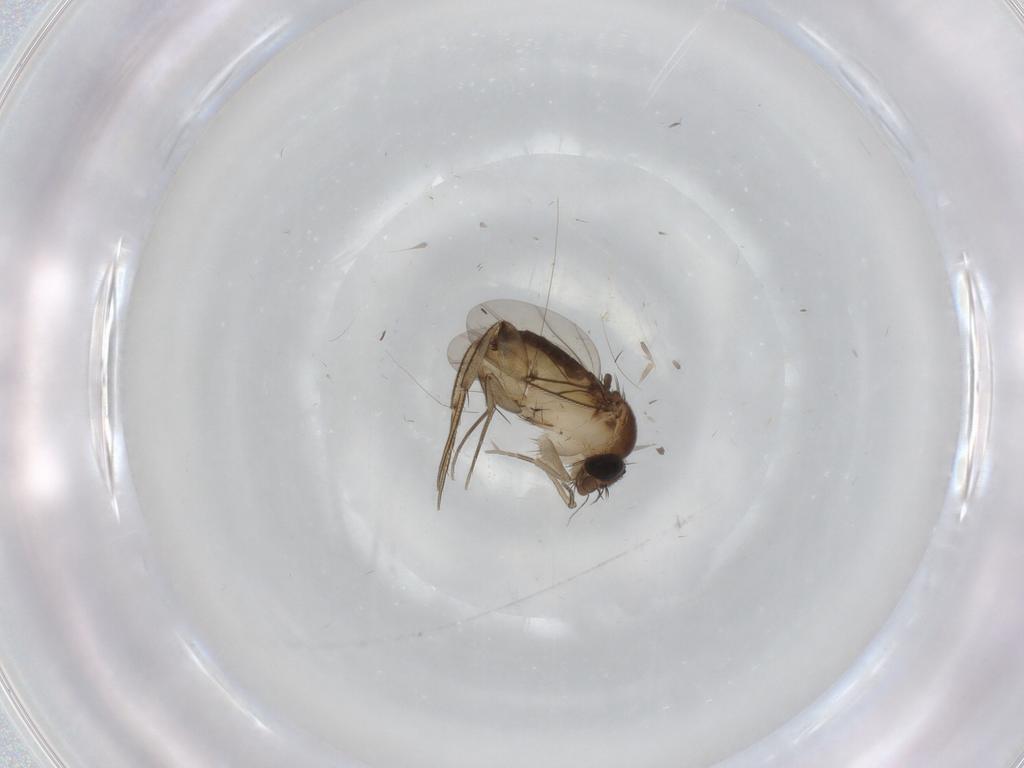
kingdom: Animalia
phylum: Arthropoda
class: Insecta
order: Diptera
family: Phoridae
